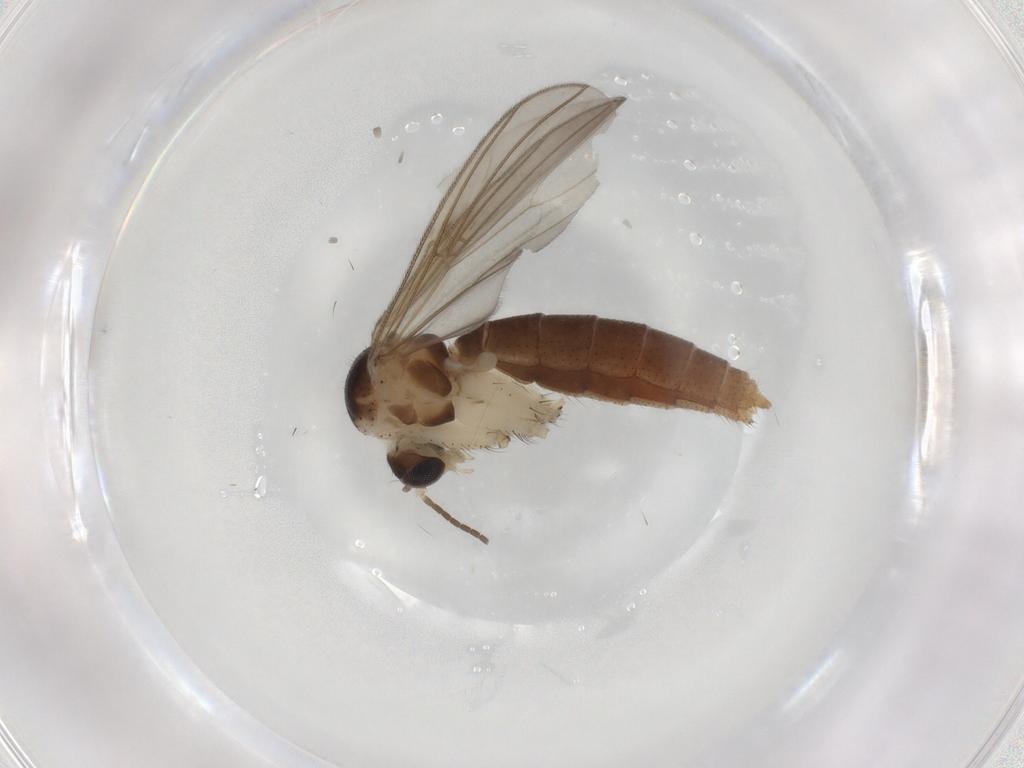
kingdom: Animalia
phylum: Arthropoda
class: Insecta
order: Diptera
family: Mycetophilidae
